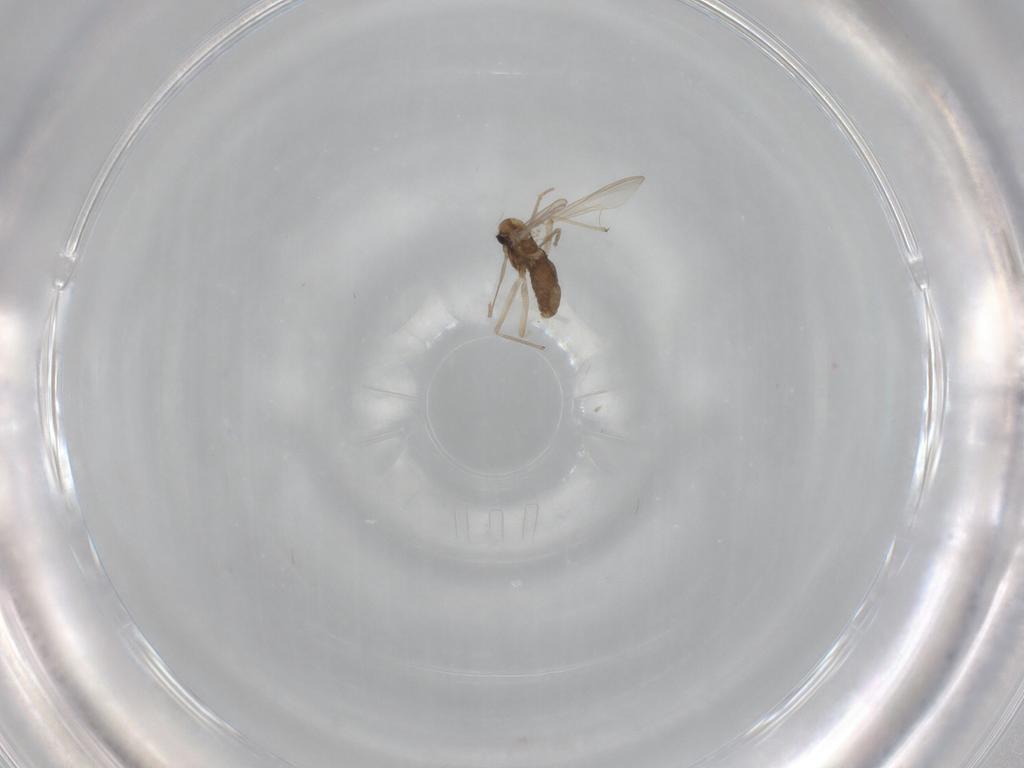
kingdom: Animalia
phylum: Arthropoda
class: Insecta
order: Diptera
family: Chironomidae
